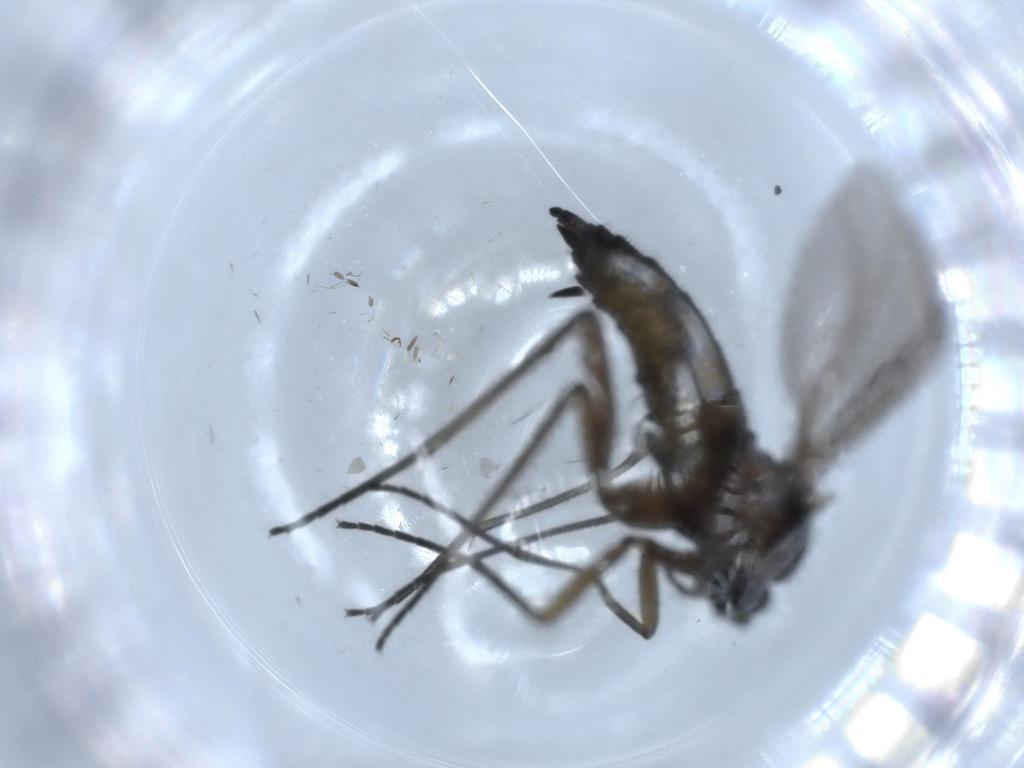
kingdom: Animalia
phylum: Arthropoda
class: Insecta
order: Diptera
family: Sciaridae
